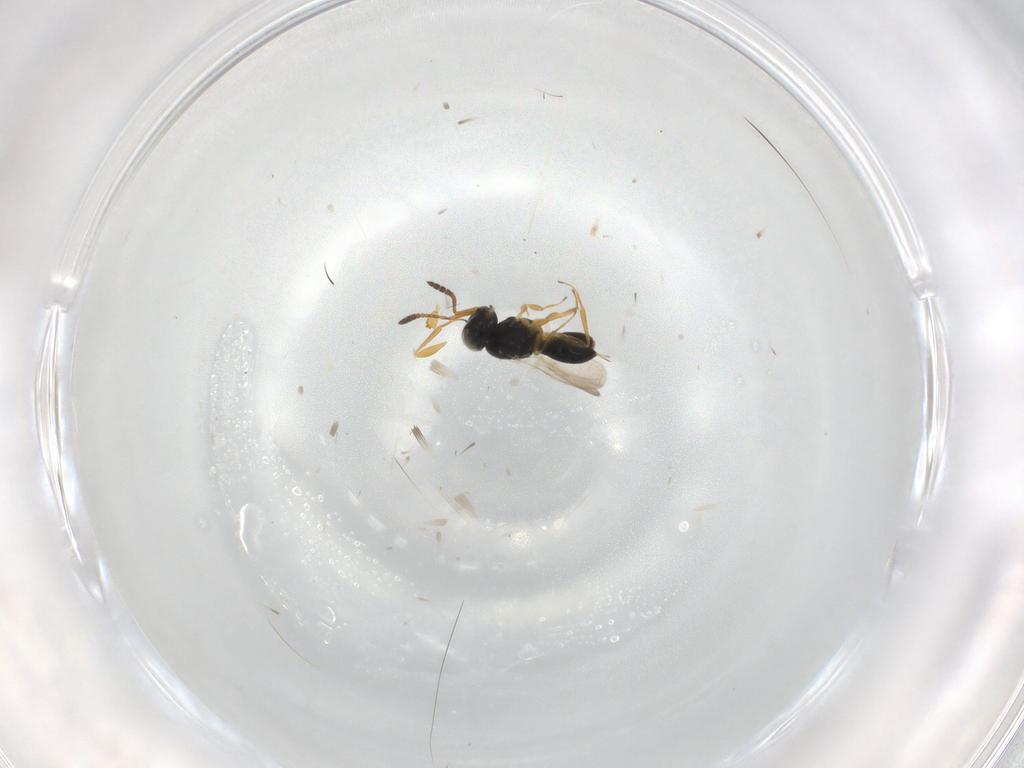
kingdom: Animalia
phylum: Arthropoda
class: Insecta
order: Hymenoptera
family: Scelionidae
